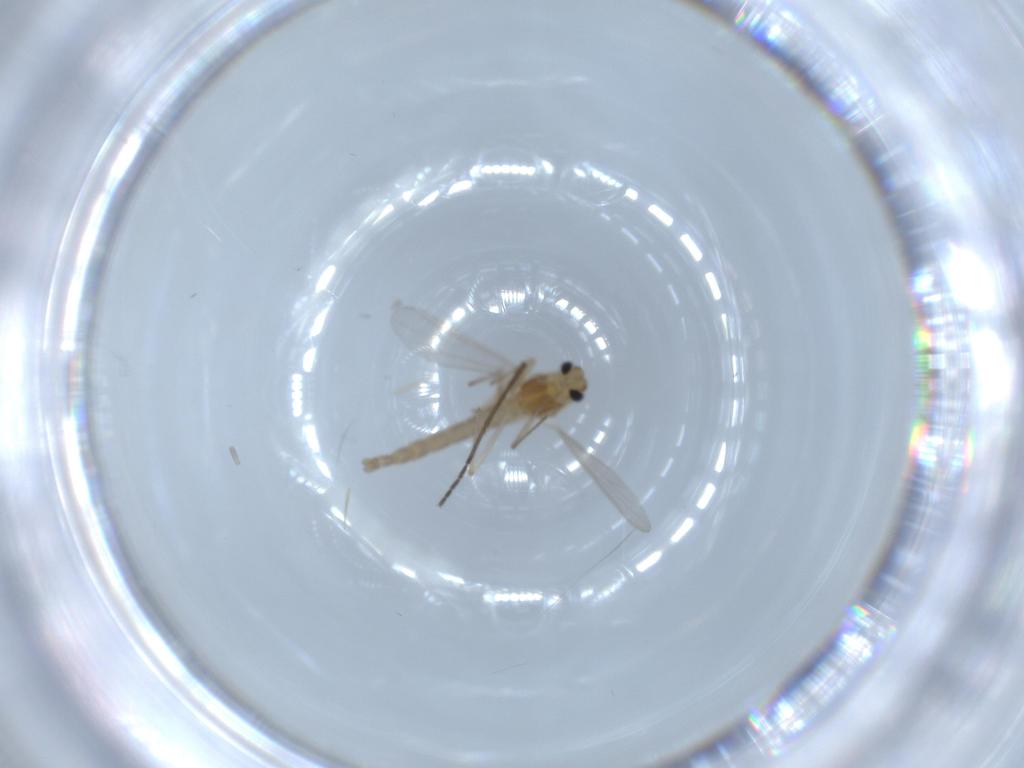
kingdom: Animalia
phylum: Arthropoda
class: Insecta
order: Diptera
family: Chironomidae
